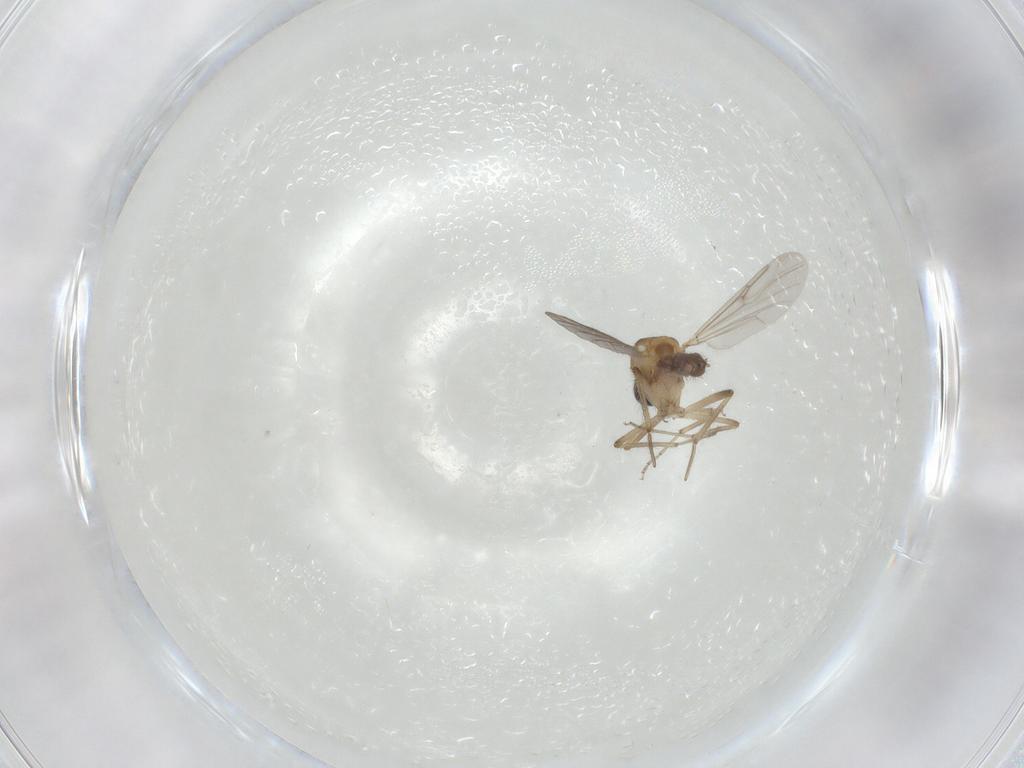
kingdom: Animalia
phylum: Arthropoda
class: Insecta
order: Diptera
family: Ceratopogonidae
